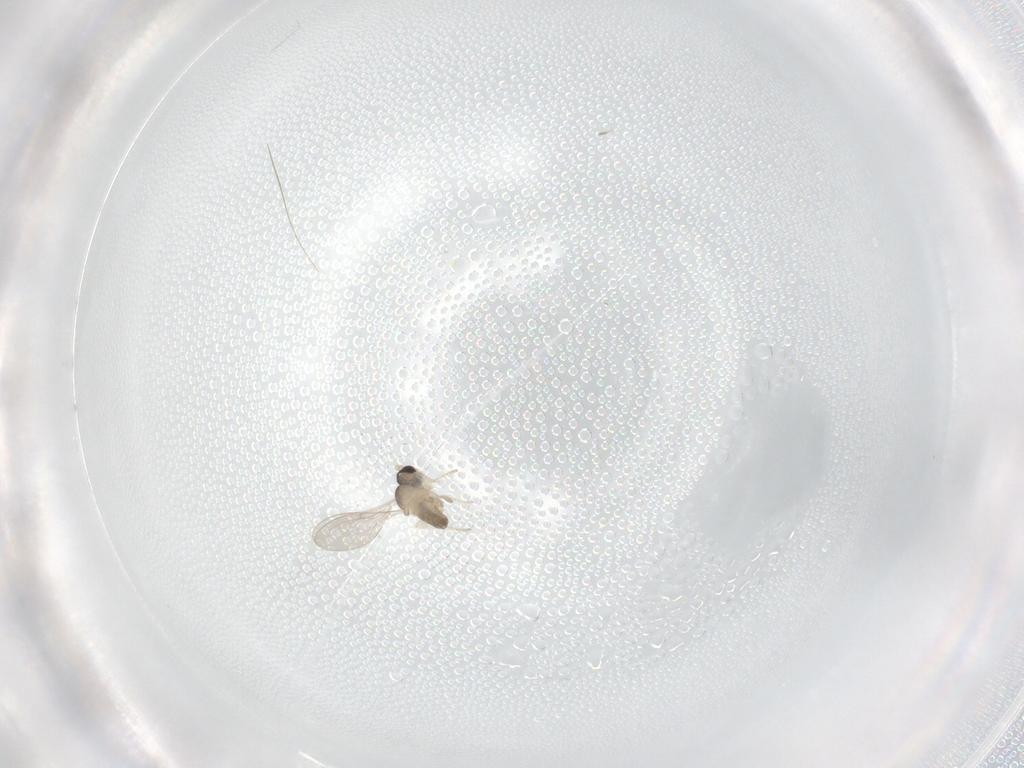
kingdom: Animalia
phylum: Arthropoda
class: Insecta
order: Diptera
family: Cecidomyiidae
